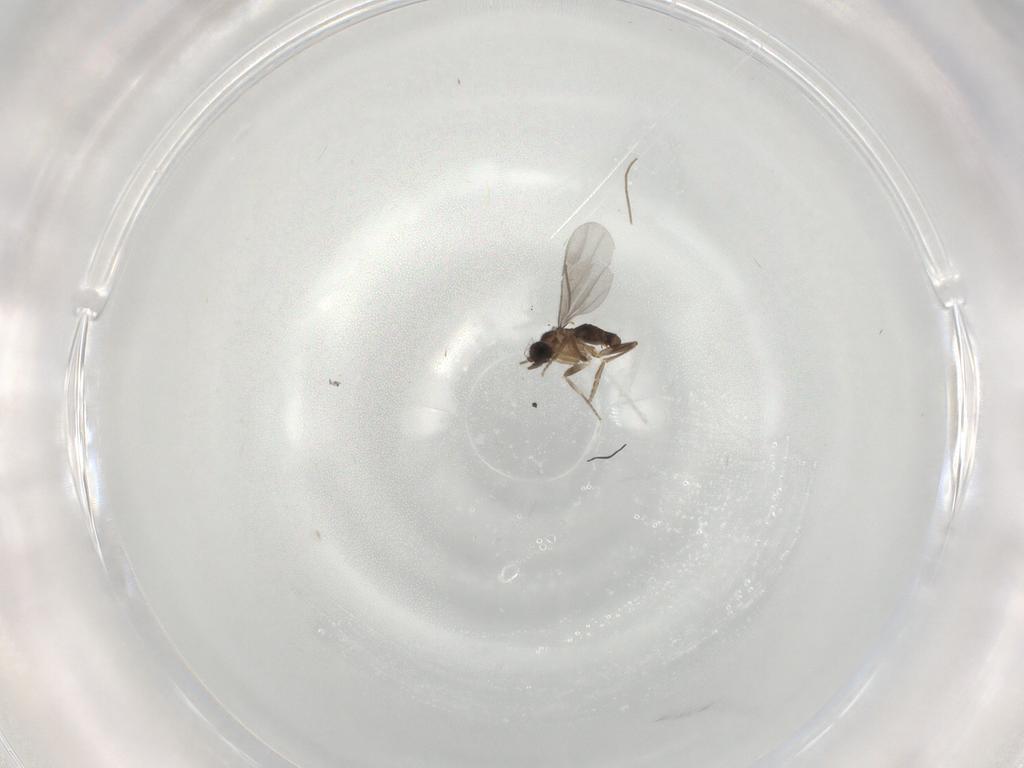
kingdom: Animalia
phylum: Arthropoda
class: Insecta
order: Diptera
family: Chironomidae
